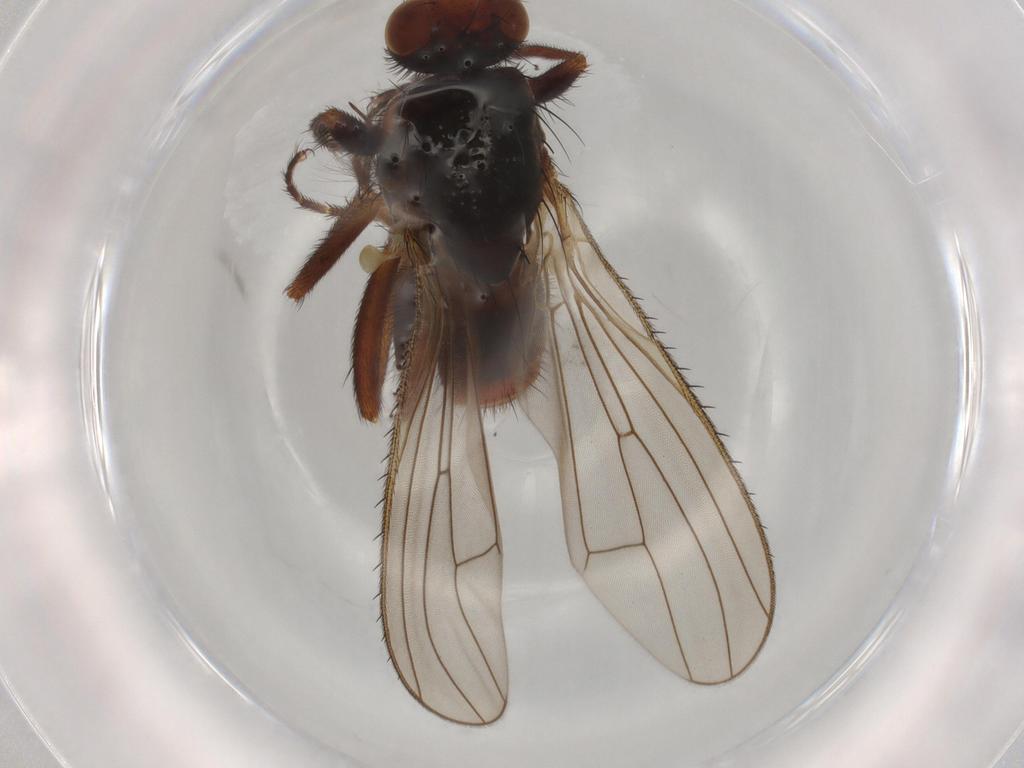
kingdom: Animalia
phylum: Arthropoda
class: Insecta
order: Diptera
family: Heleomyzidae
